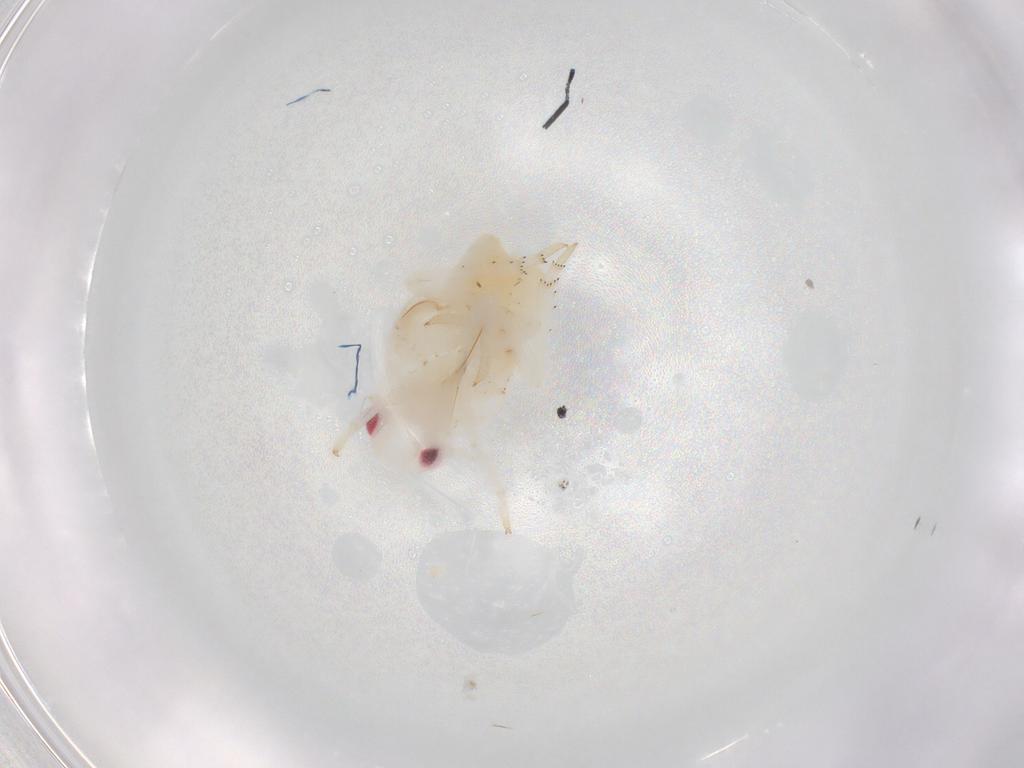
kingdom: Animalia
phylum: Arthropoda
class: Insecta
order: Hemiptera
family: Flatidae
